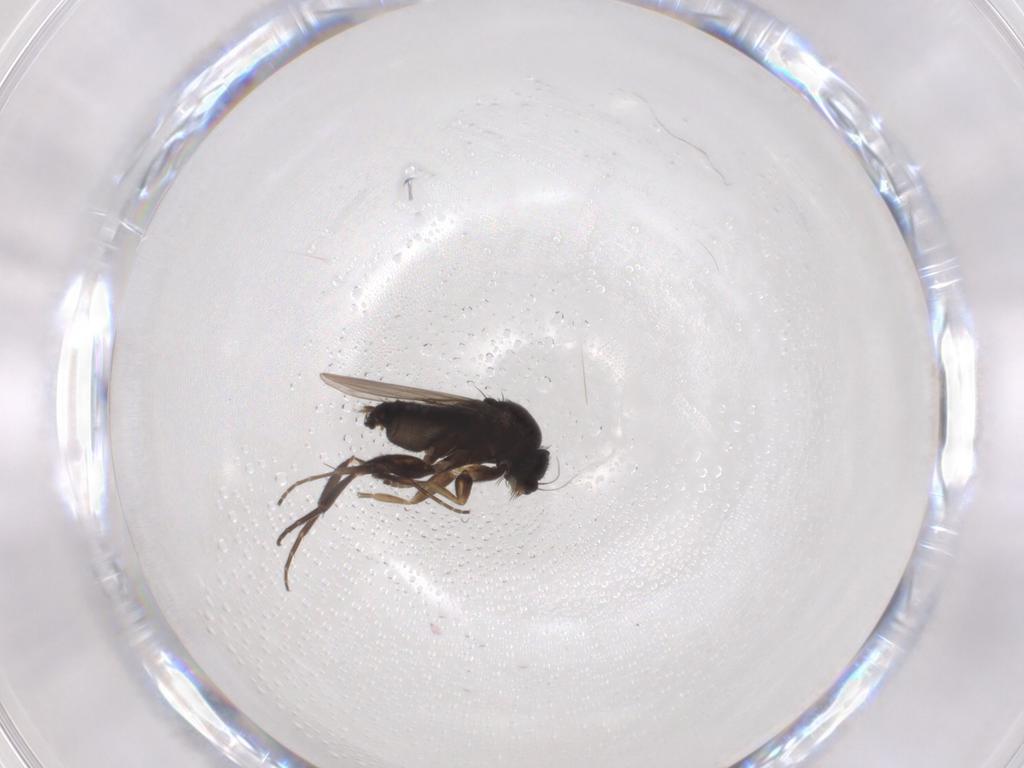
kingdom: Animalia
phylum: Arthropoda
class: Insecta
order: Diptera
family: Phoridae
